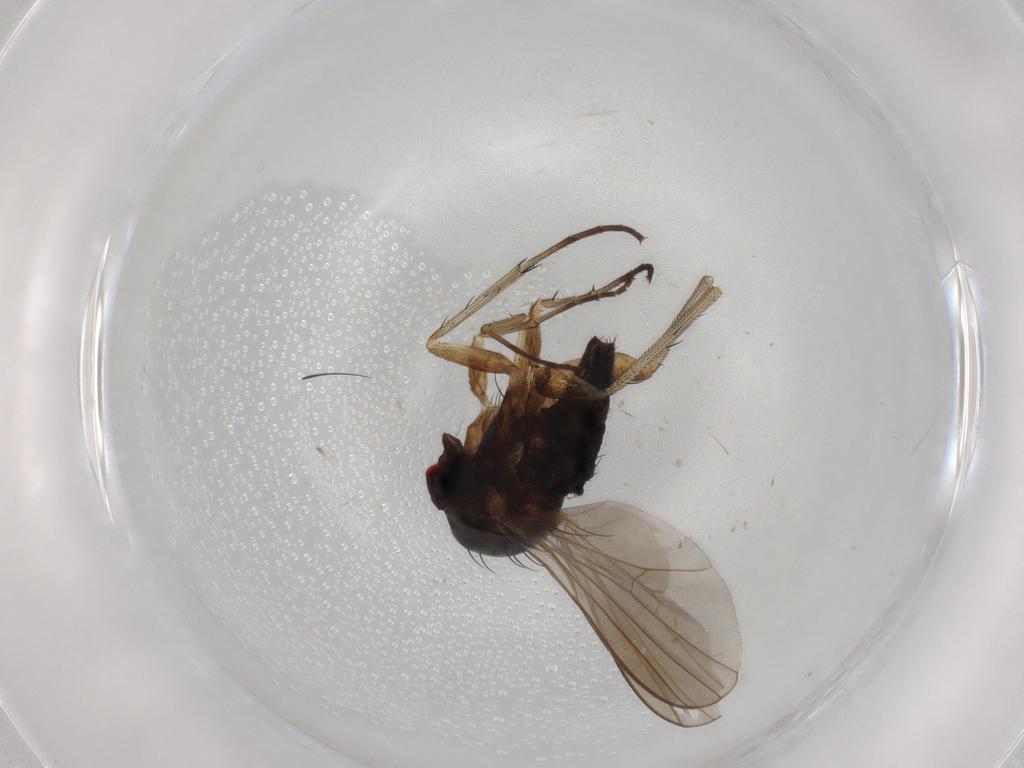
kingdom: Animalia
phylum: Arthropoda
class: Insecta
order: Diptera
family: Dolichopodidae
